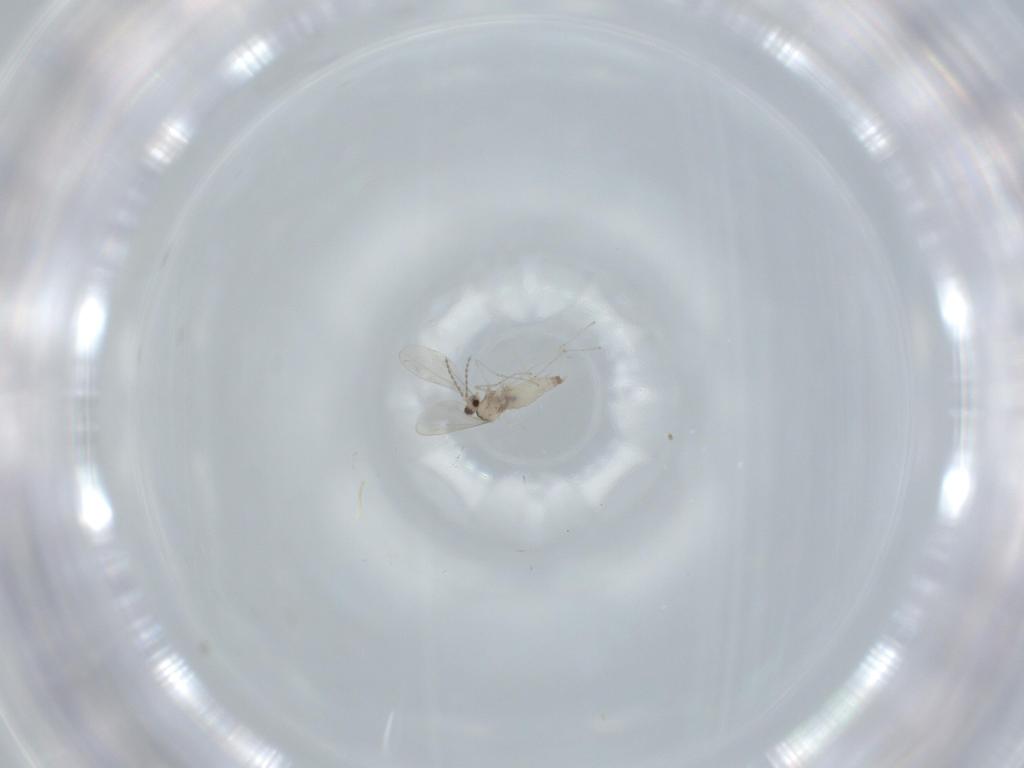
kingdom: Animalia
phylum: Arthropoda
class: Insecta
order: Diptera
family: Cecidomyiidae
